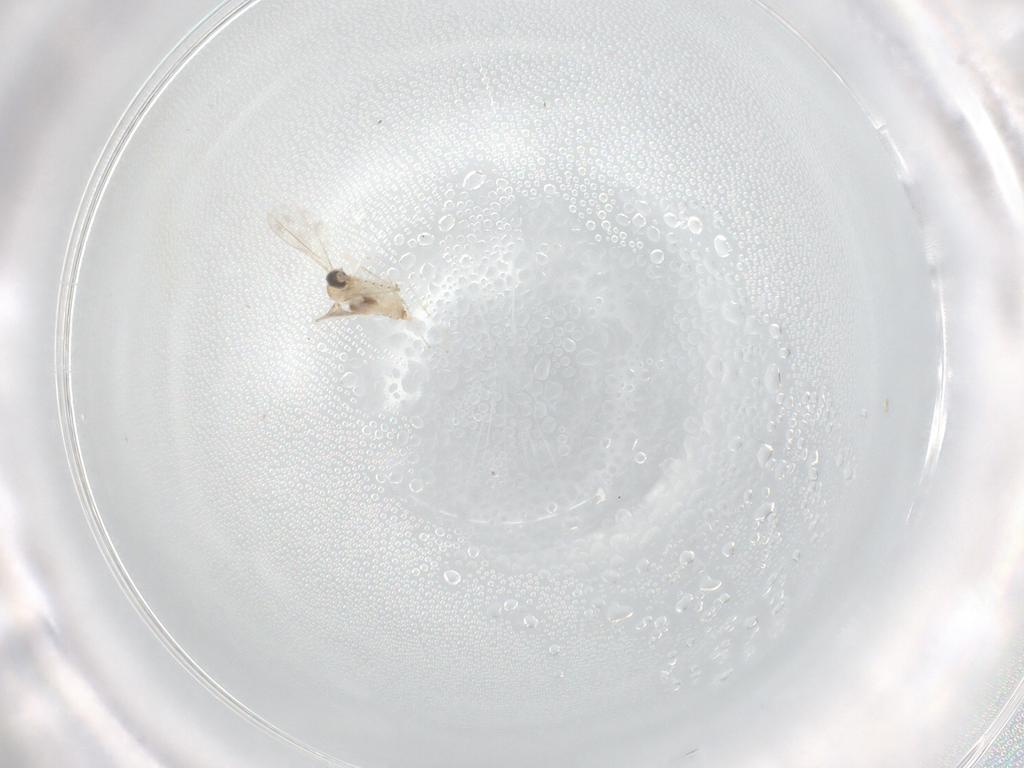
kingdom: Animalia
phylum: Arthropoda
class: Insecta
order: Diptera
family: Cecidomyiidae
